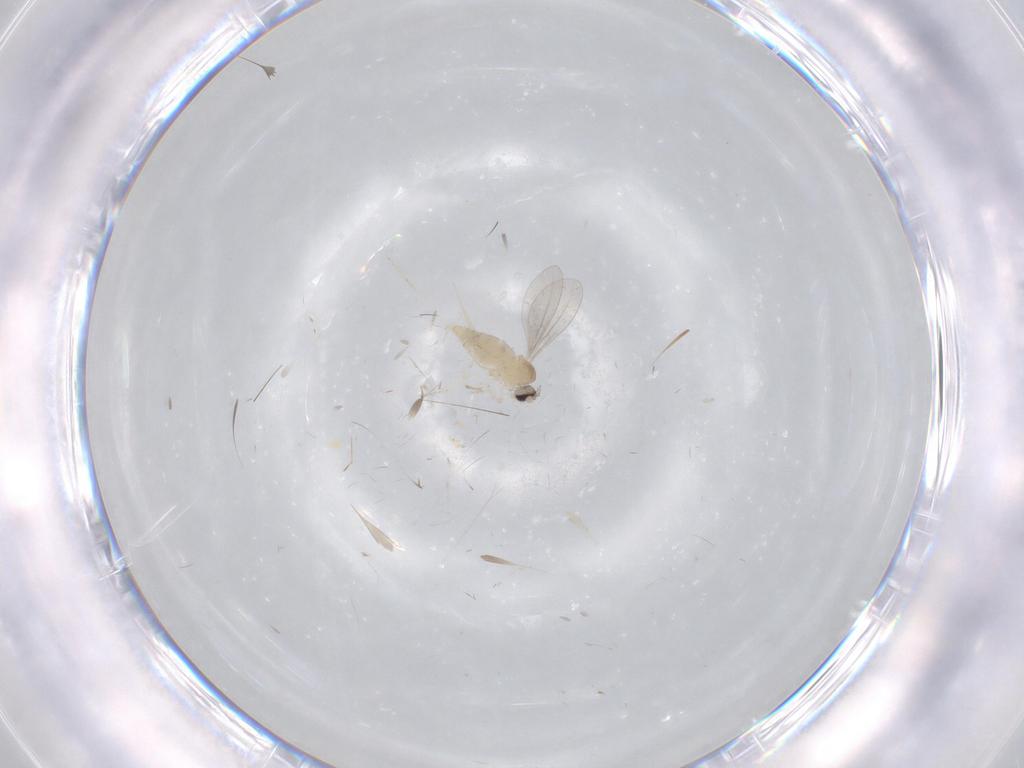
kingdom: Animalia
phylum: Arthropoda
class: Insecta
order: Diptera
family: Cecidomyiidae
